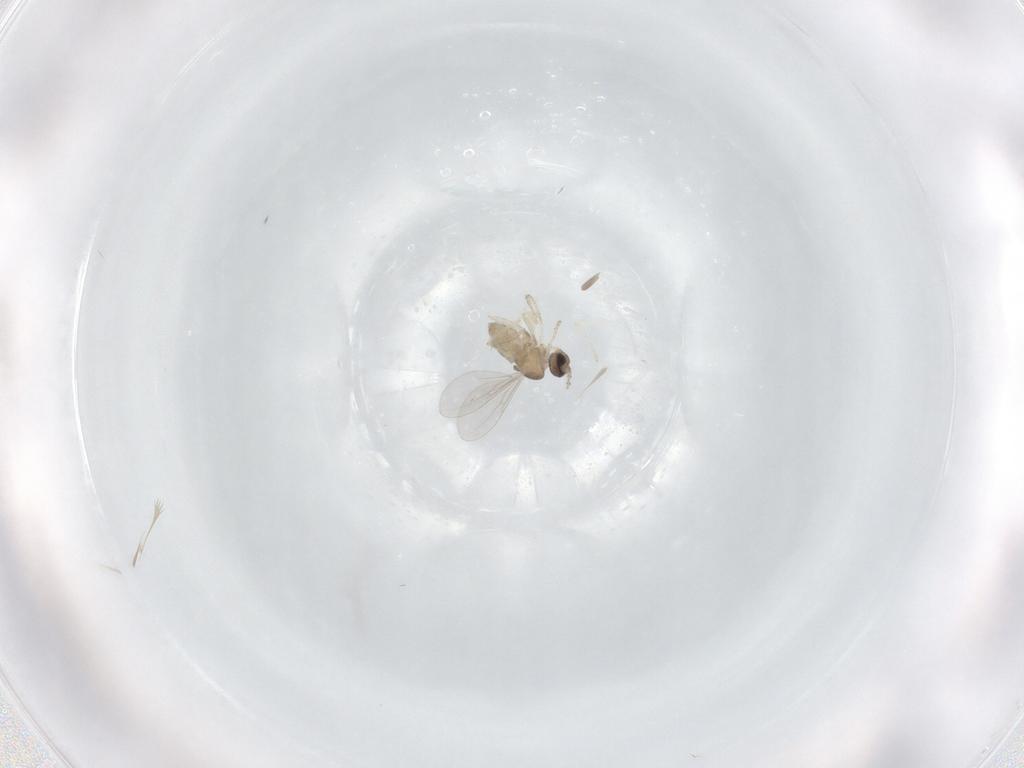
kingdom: Animalia
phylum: Arthropoda
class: Insecta
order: Diptera
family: Cecidomyiidae
